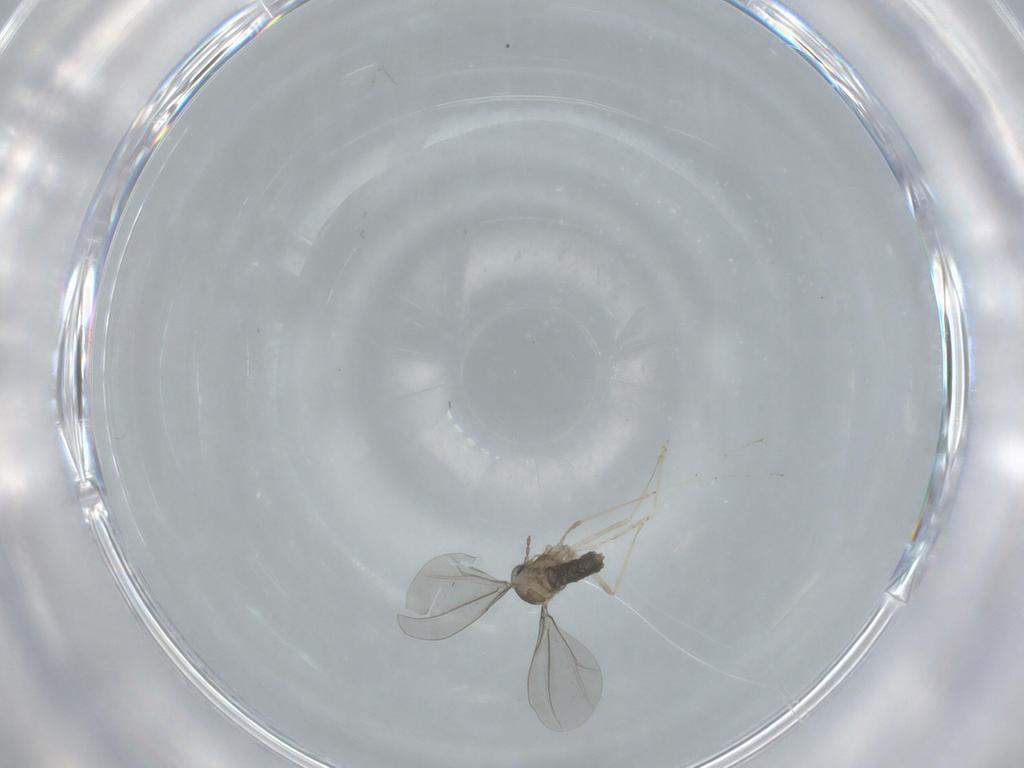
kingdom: Animalia
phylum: Arthropoda
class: Insecta
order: Diptera
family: Cecidomyiidae
